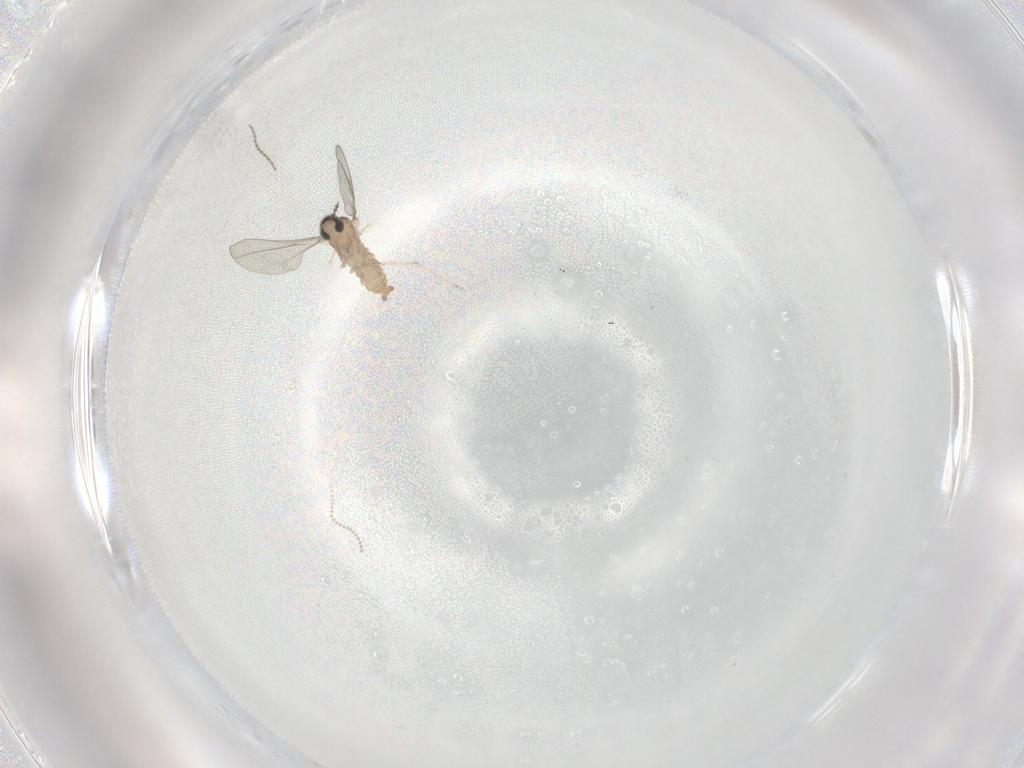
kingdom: Animalia
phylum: Arthropoda
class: Insecta
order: Diptera
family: Cecidomyiidae
